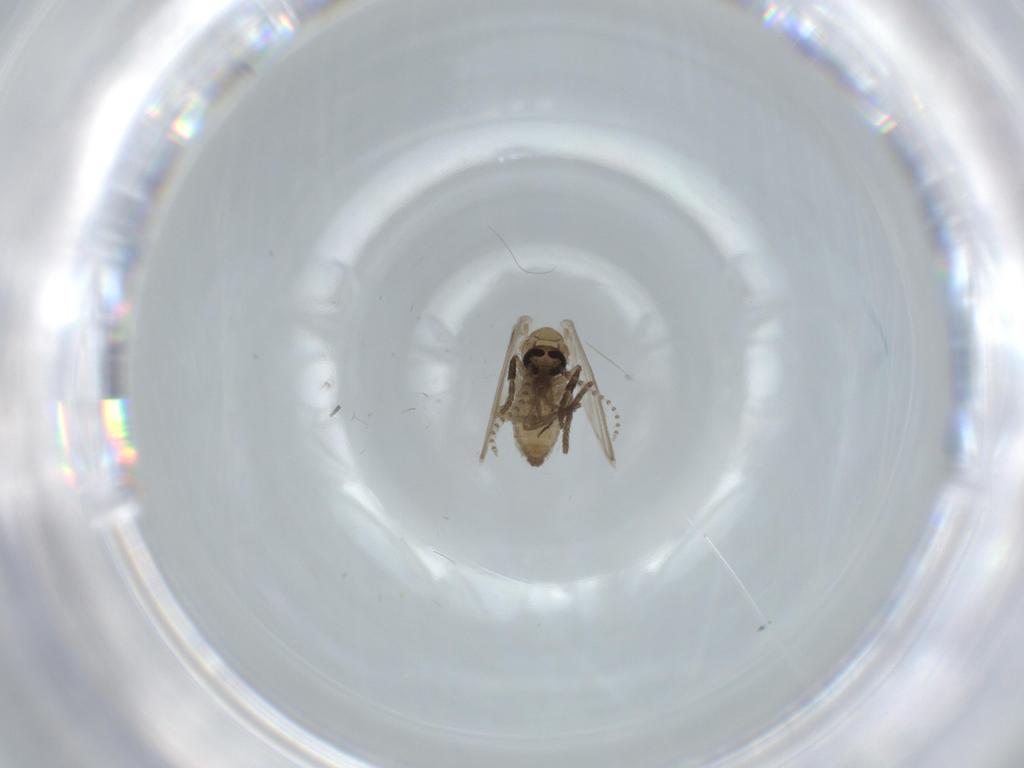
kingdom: Animalia
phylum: Arthropoda
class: Insecta
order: Diptera
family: Psychodidae
